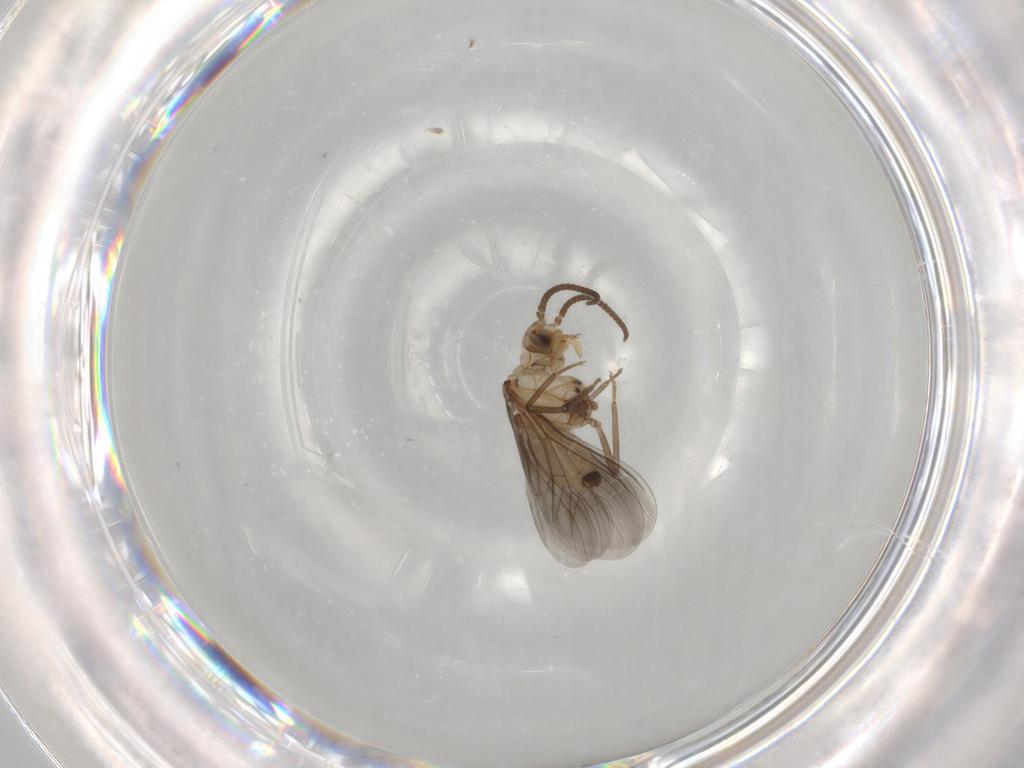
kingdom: Animalia
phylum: Arthropoda
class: Insecta
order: Neuroptera
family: Coniopterygidae
